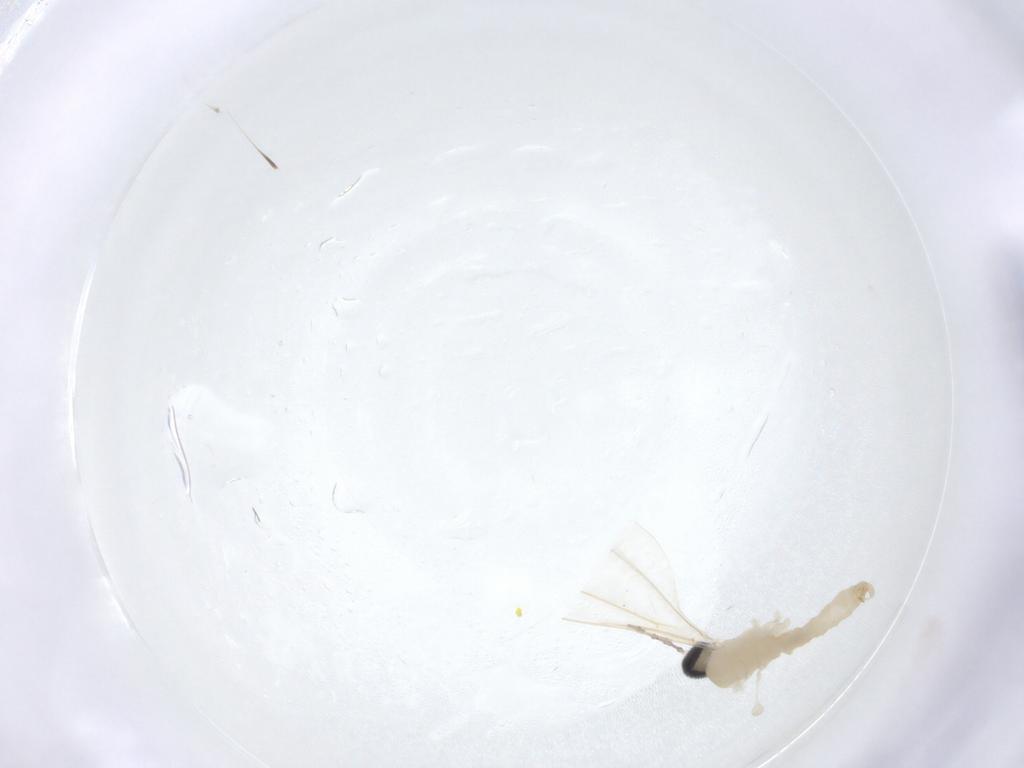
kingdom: Animalia
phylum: Arthropoda
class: Insecta
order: Diptera
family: Cecidomyiidae
